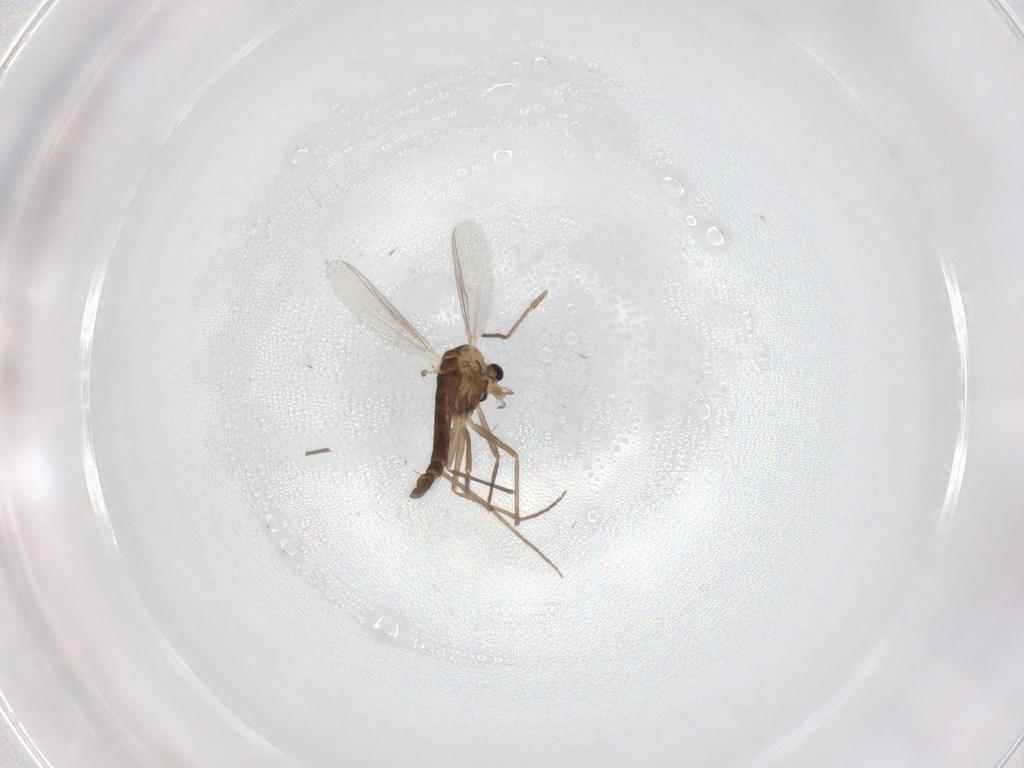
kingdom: Animalia
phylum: Arthropoda
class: Insecta
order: Diptera
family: Chironomidae
